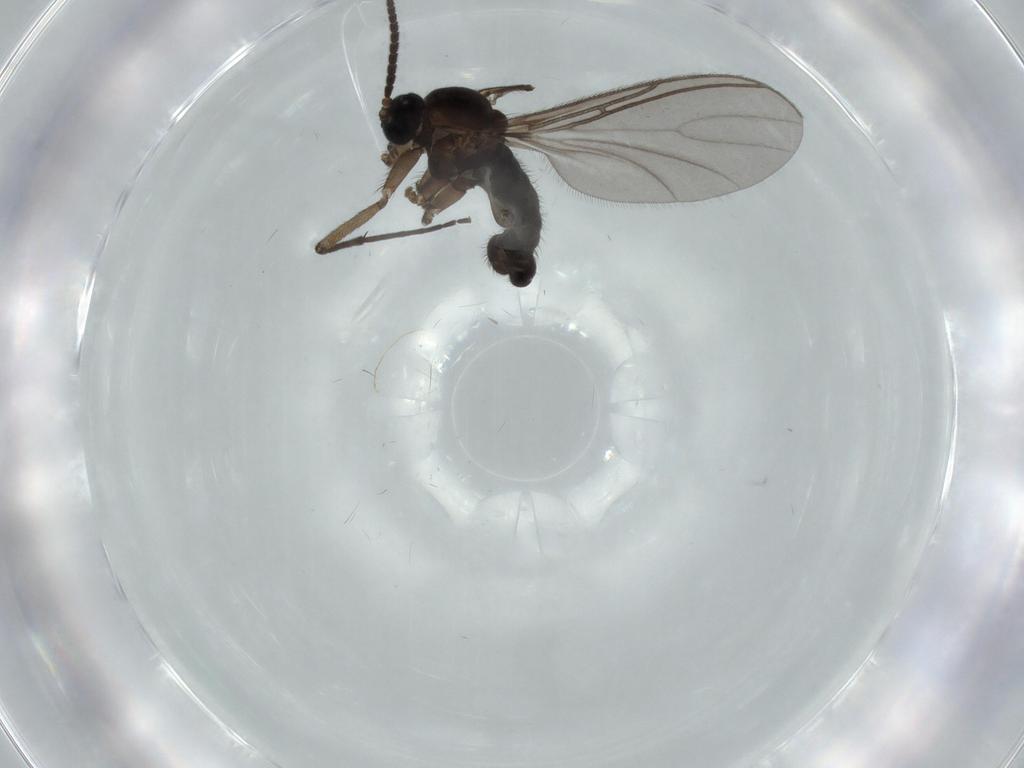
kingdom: Animalia
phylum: Arthropoda
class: Insecta
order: Diptera
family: Sciaridae
